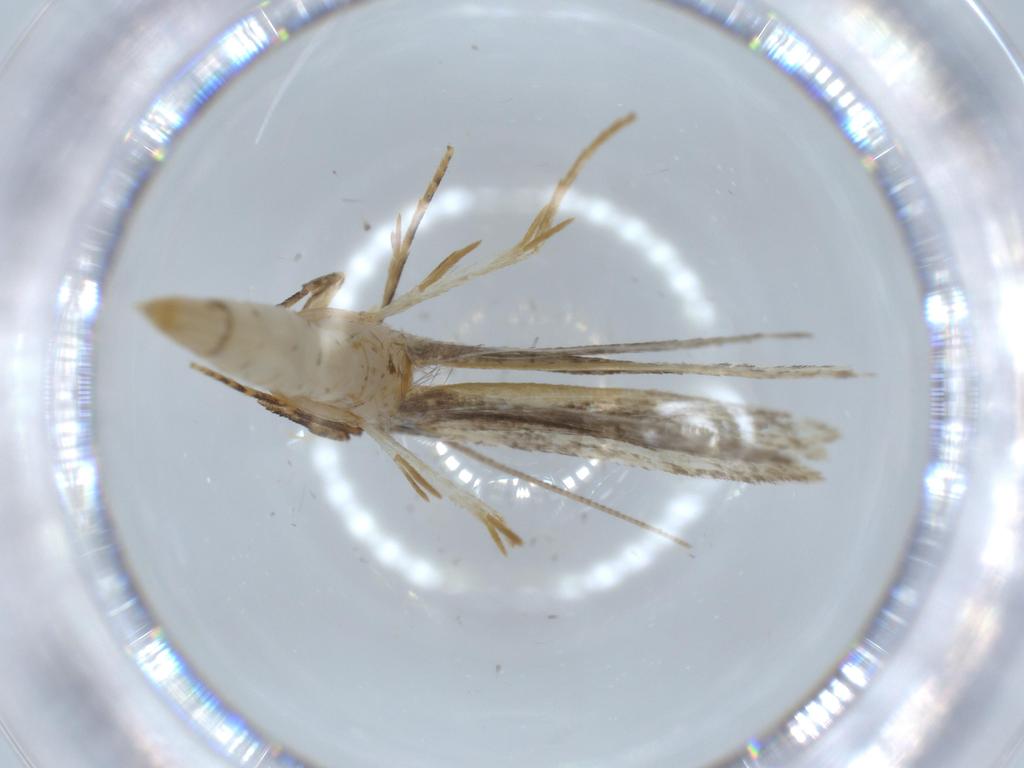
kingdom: Animalia
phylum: Arthropoda
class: Insecta
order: Lepidoptera
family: Tineidae
